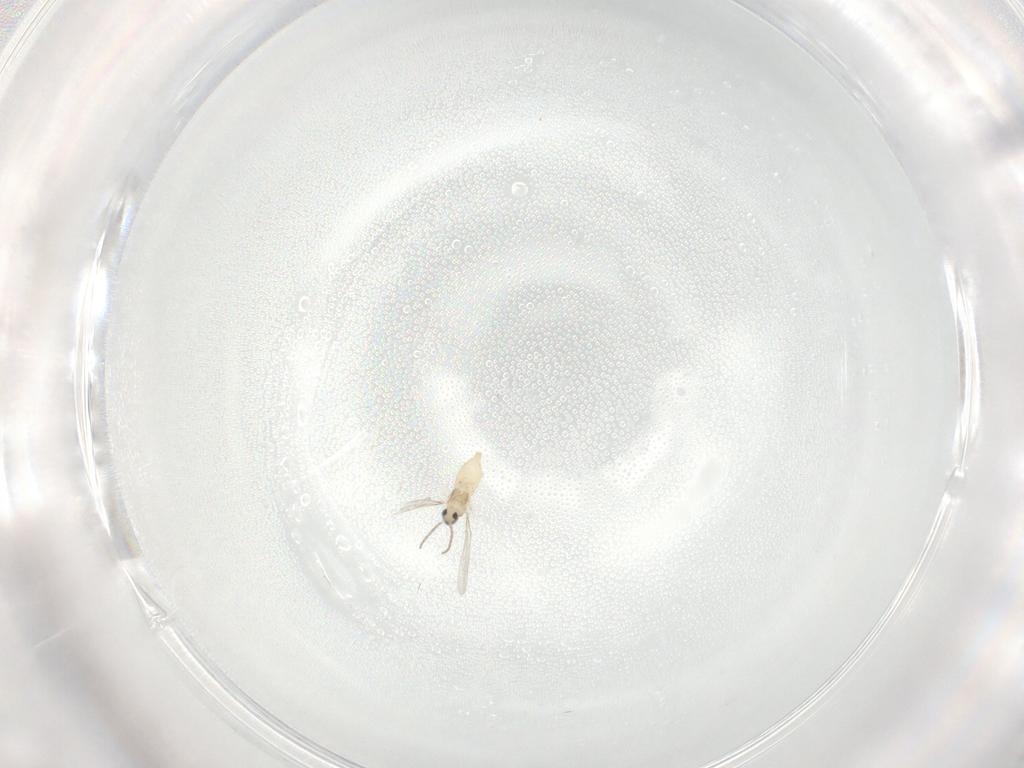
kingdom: Animalia
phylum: Arthropoda
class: Insecta
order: Diptera
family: Cecidomyiidae
